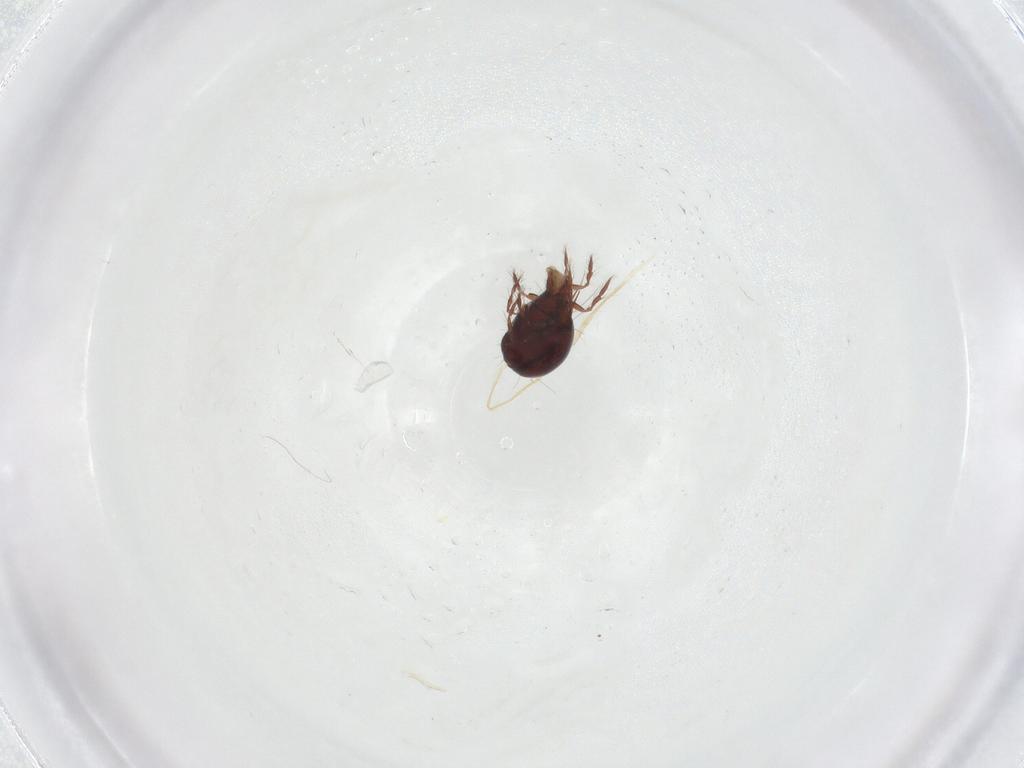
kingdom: Animalia
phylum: Arthropoda
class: Arachnida
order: Sarcoptiformes
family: Ceratoppiidae
